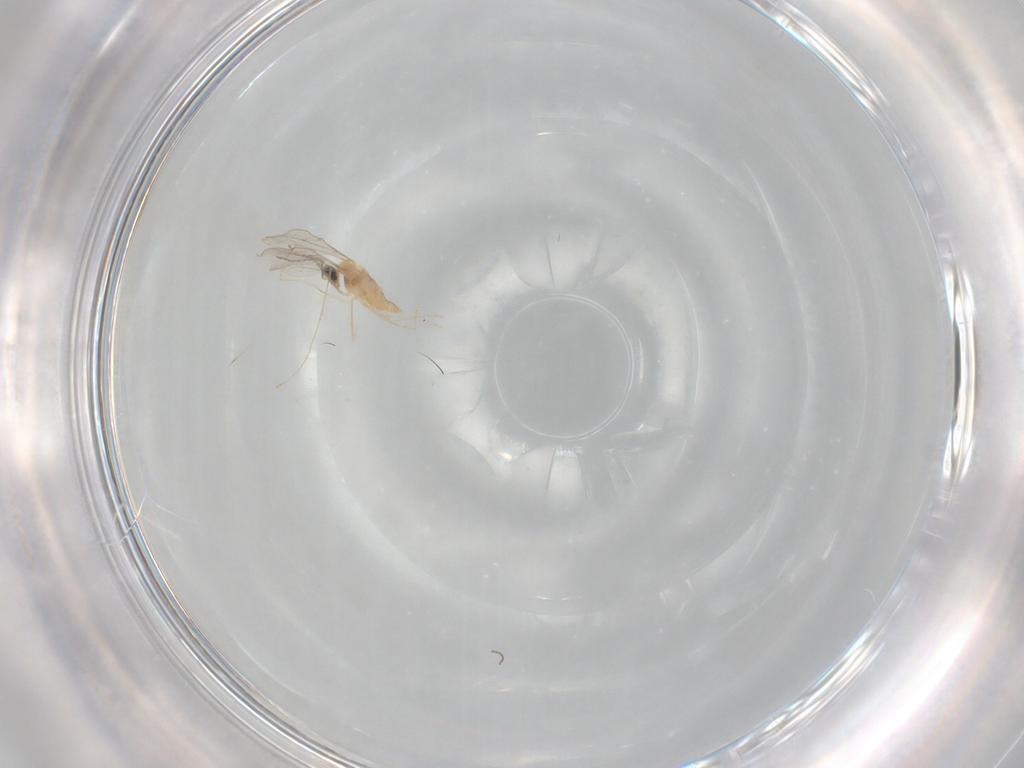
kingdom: Animalia
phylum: Arthropoda
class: Insecta
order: Diptera
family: Cecidomyiidae
